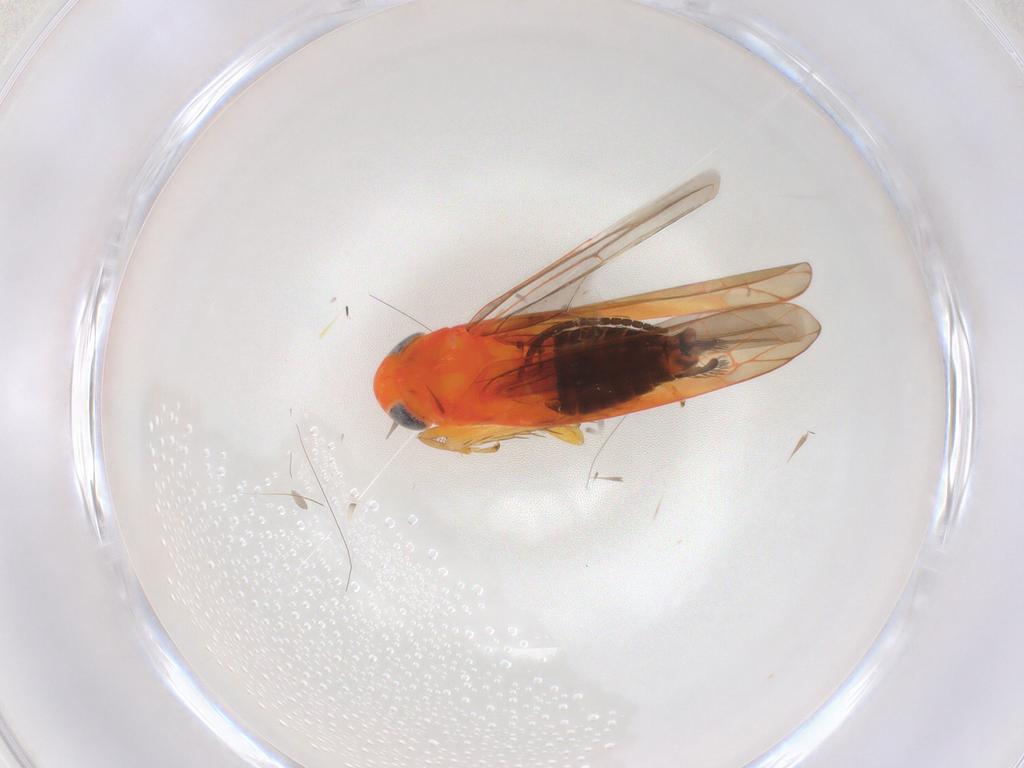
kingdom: Animalia
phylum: Arthropoda
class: Insecta
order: Hemiptera
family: Cicadellidae
